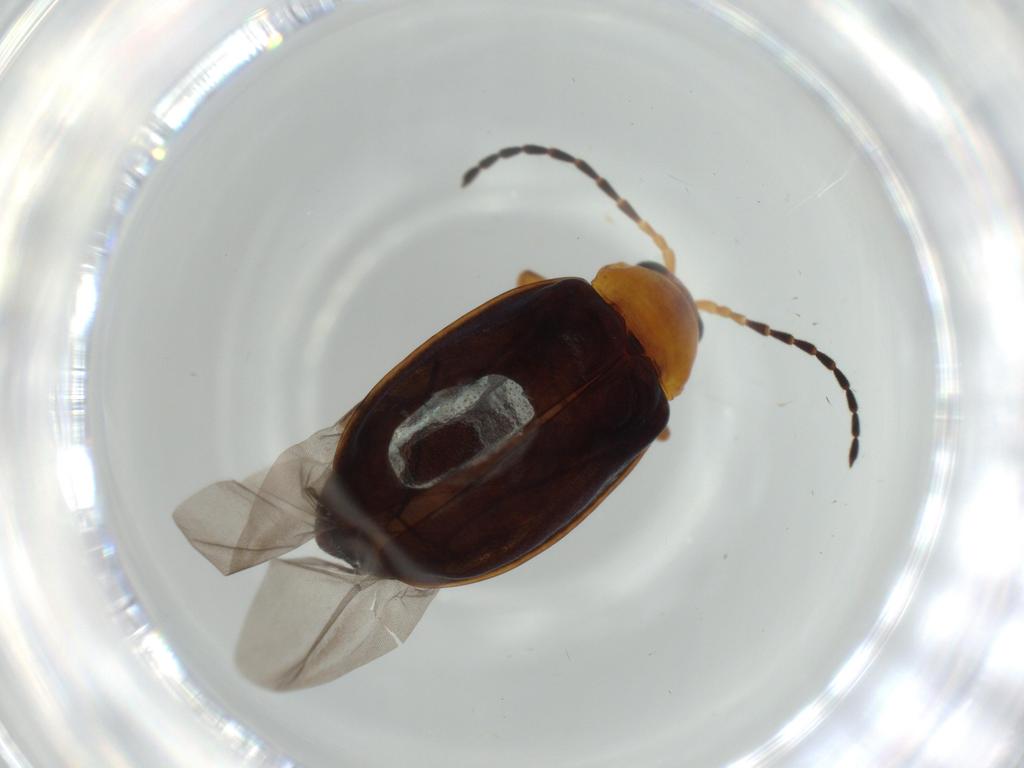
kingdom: Animalia
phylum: Arthropoda
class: Insecta
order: Coleoptera
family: Chrysomelidae
